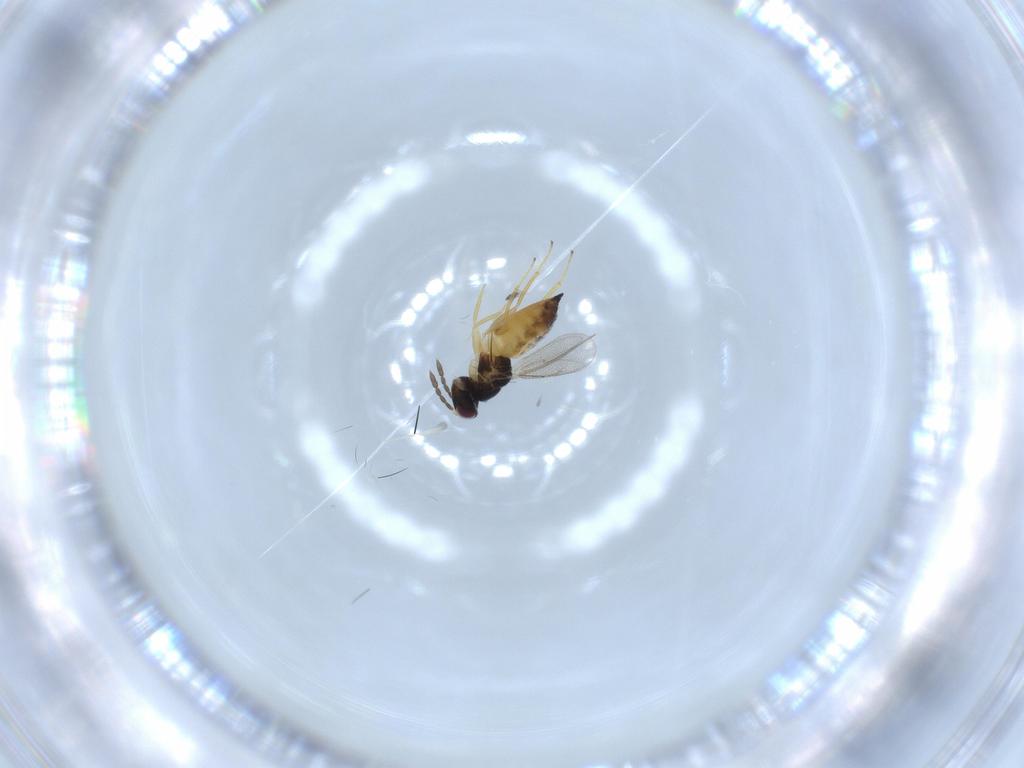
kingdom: Animalia
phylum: Arthropoda
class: Insecta
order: Hymenoptera
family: Eulophidae
